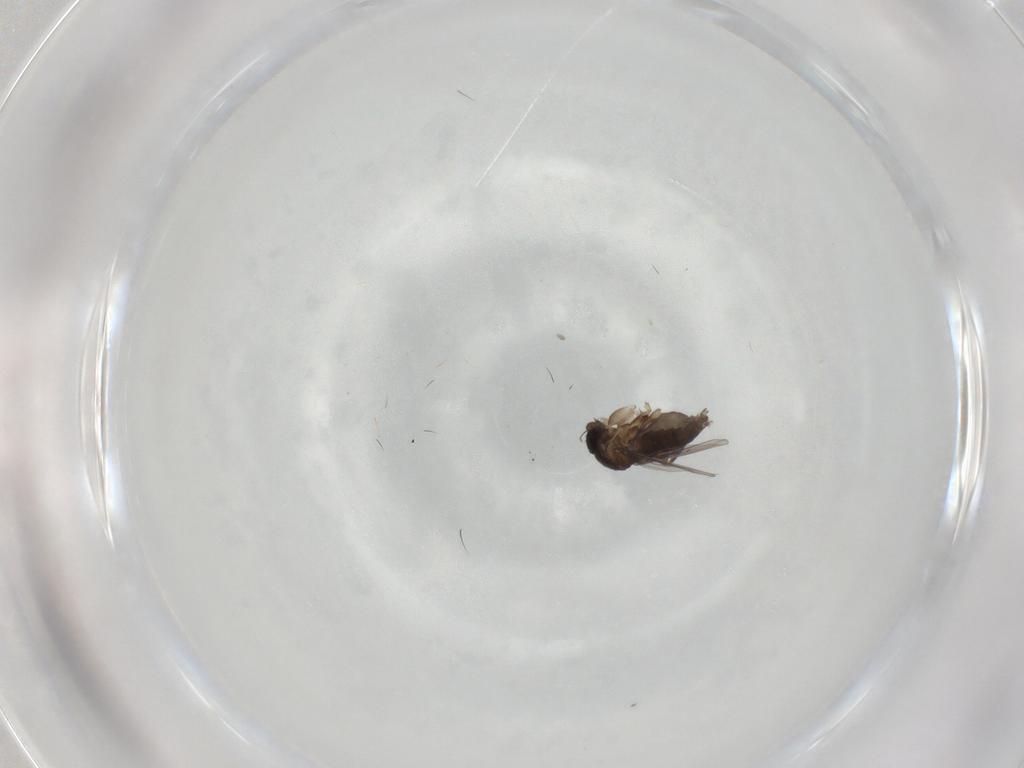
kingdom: Animalia
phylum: Arthropoda
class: Insecta
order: Diptera
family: Phoridae
